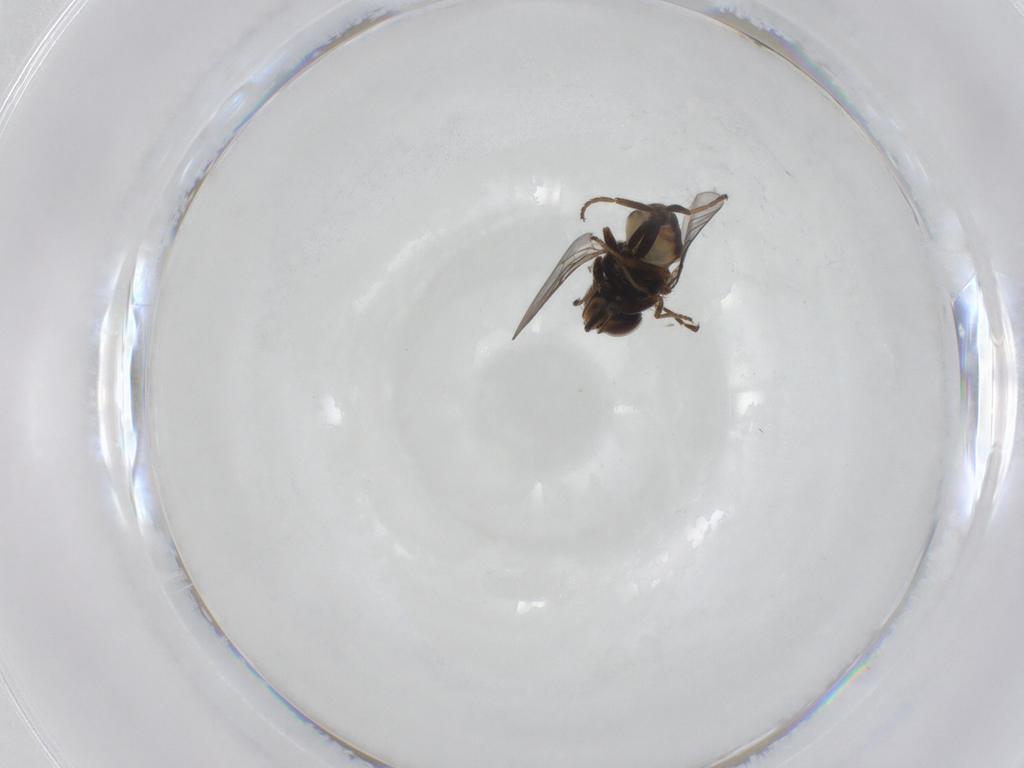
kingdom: Animalia
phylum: Arthropoda
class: Insecta
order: Diptera
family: Chloropidae
